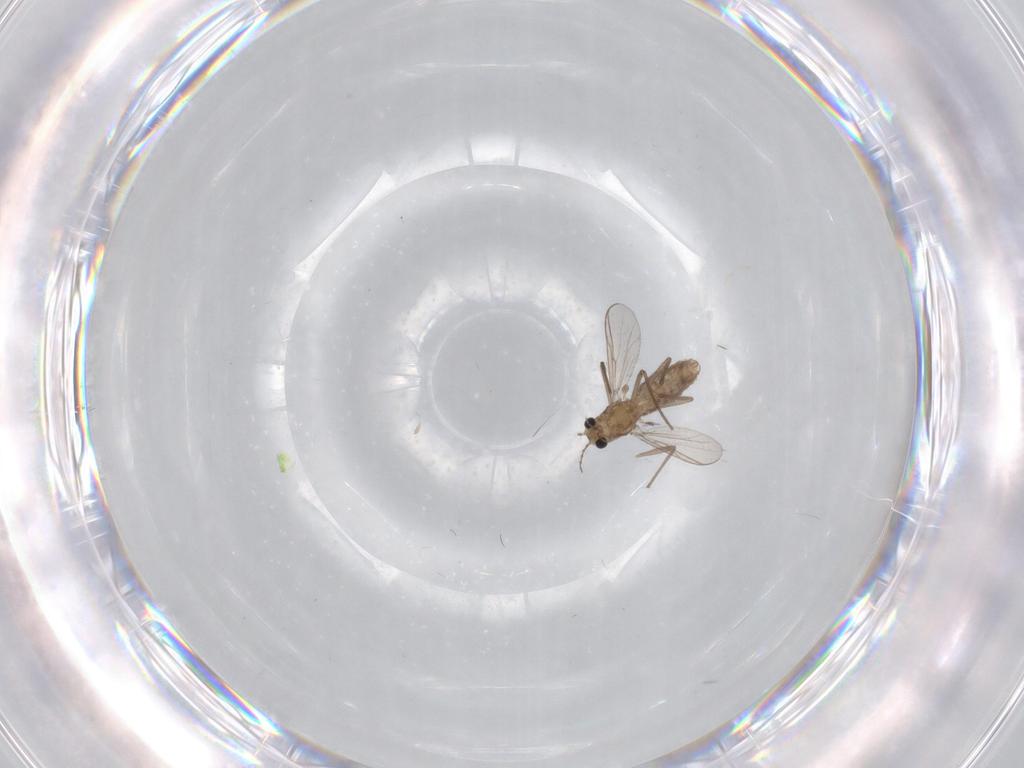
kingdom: Animalia
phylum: Arthropoda
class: Insecta
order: Diptera
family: Chironomidae
